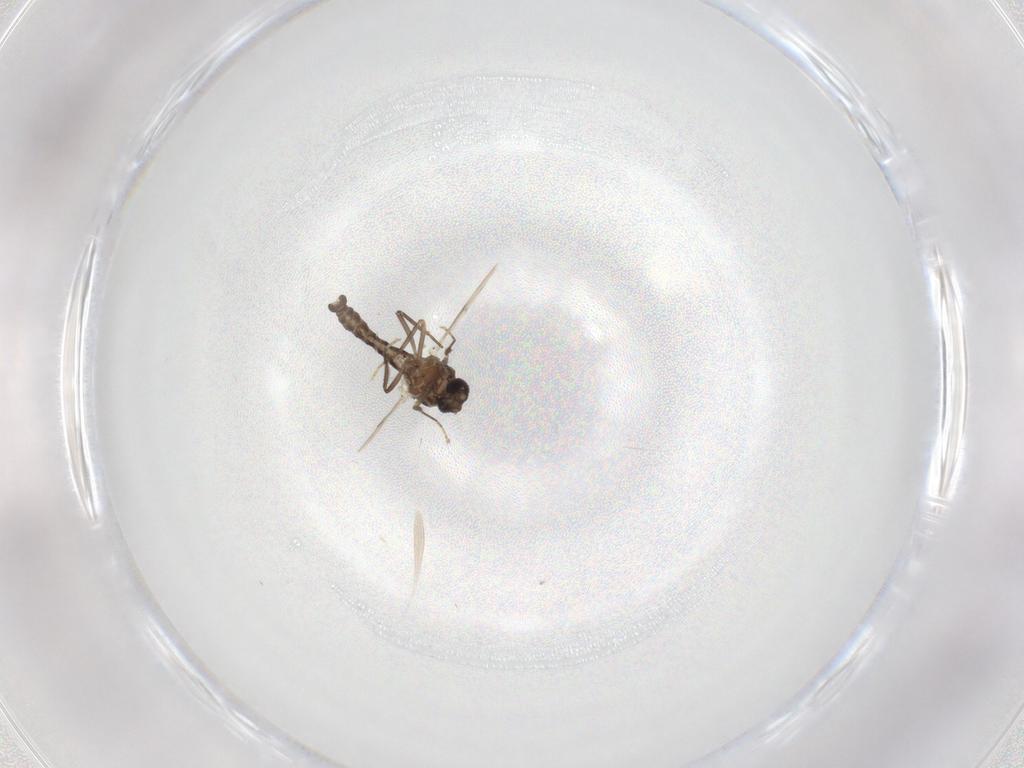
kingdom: Animalia
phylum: Arthropoda
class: Insecta
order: Diptera
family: Ceratopogonidae
